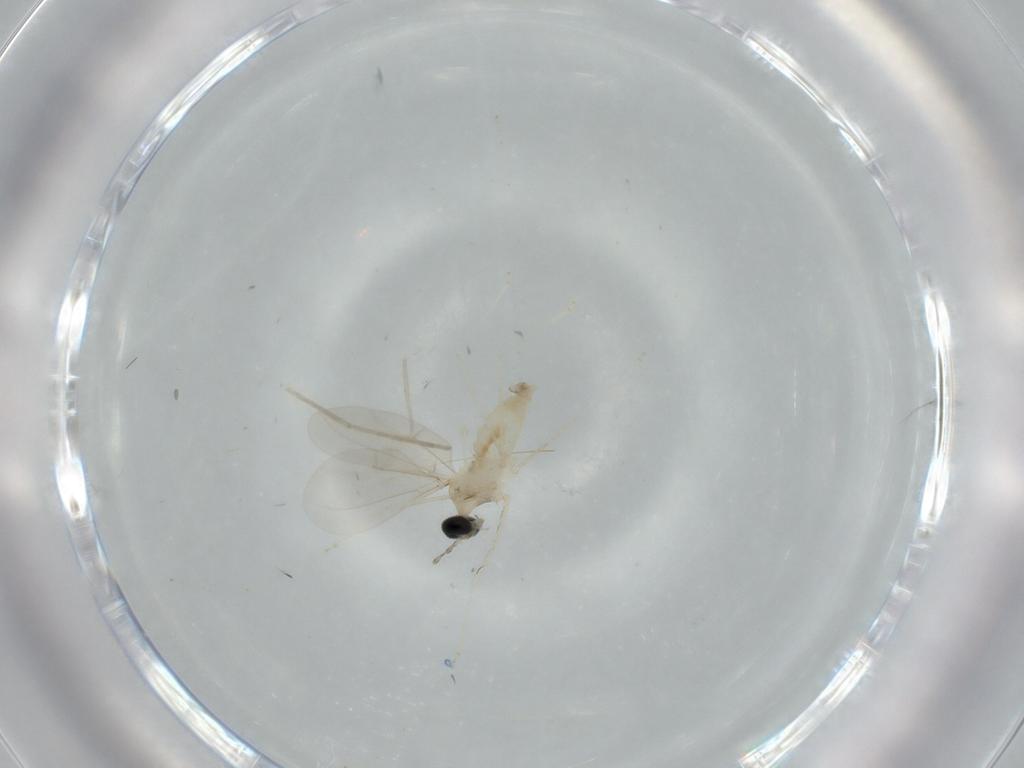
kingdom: Animalia
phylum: Arthropoda
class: Insecta
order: Diptera
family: Cecidomyiidae
